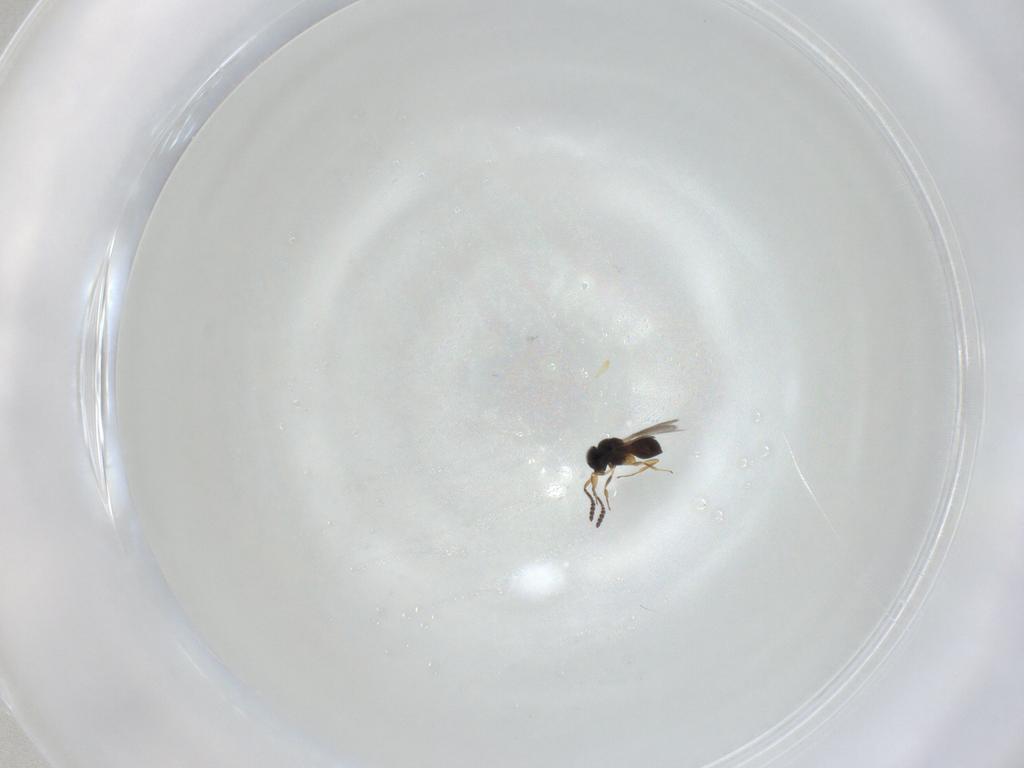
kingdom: Animalia
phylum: Arthropoda
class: Insecta
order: Hymenoptera
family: Scelionidae
